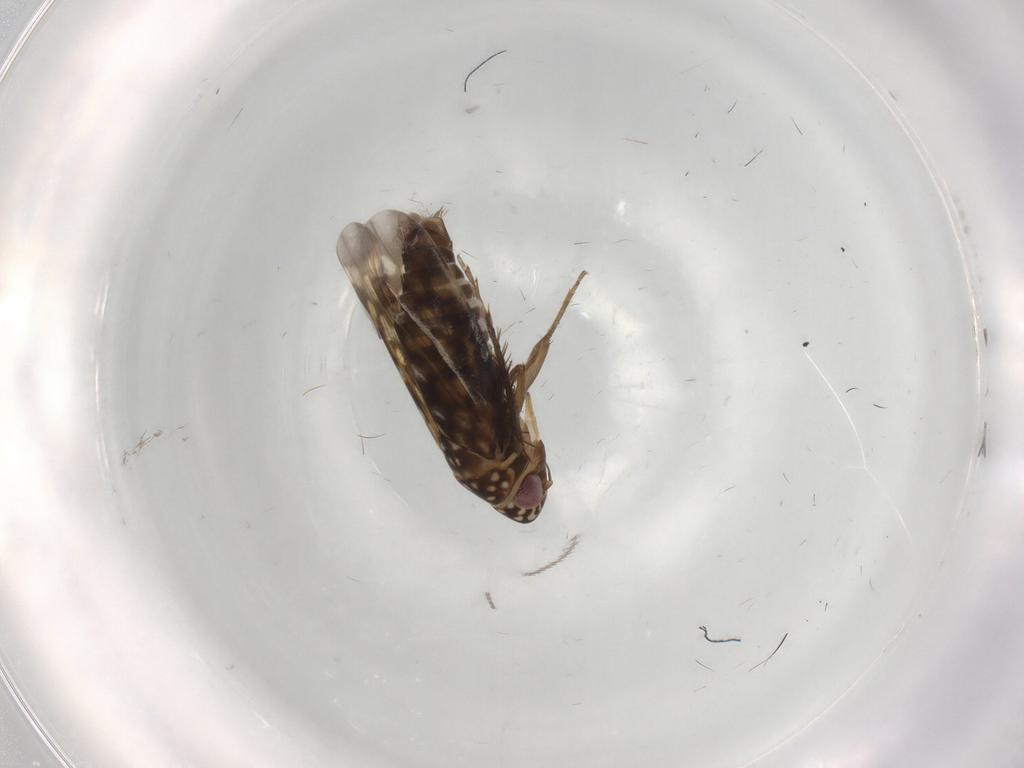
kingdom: Animalia
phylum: Arthropoda
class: Insecta
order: Hemiptera
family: Cicadellidae
